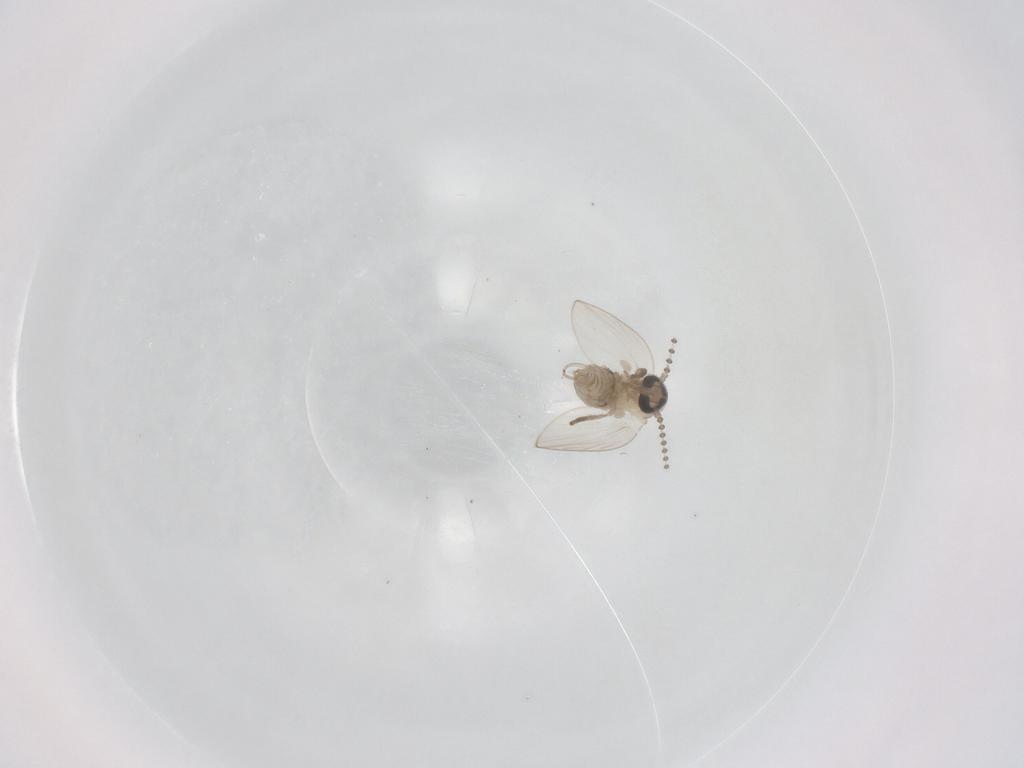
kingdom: Animalia
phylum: Arthropoda
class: Insecta
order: Diptera
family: Psychodidae
